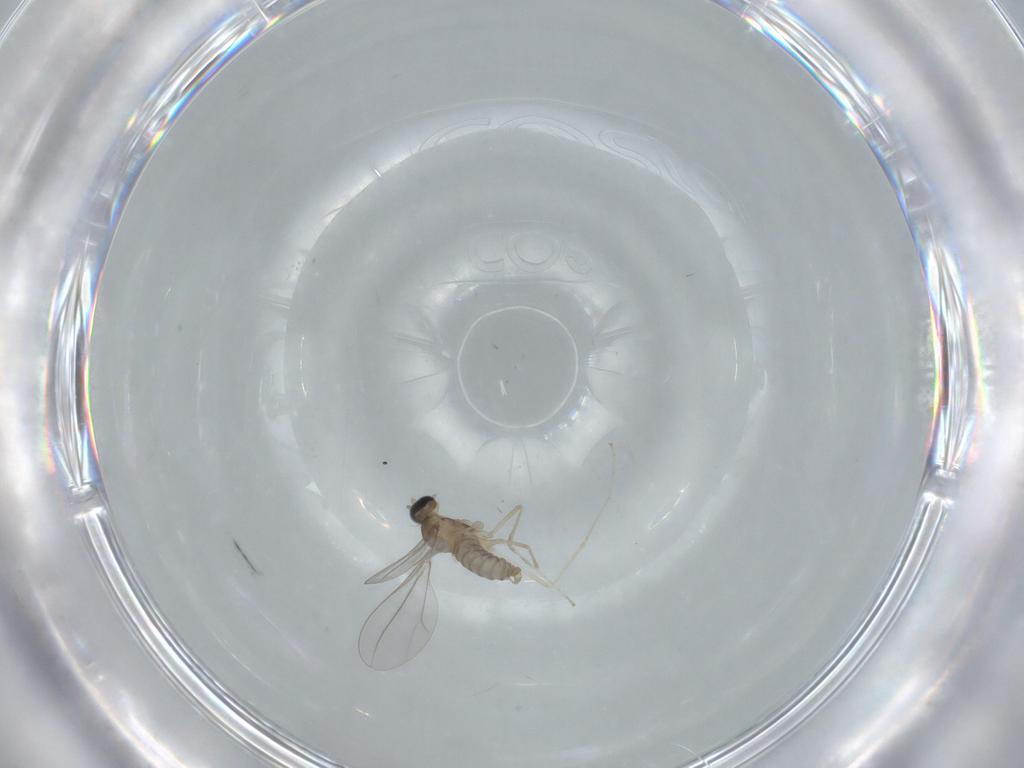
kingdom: Animalia
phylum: Arthropoda
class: Insecta
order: Diptera
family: Cecidomyiidae
